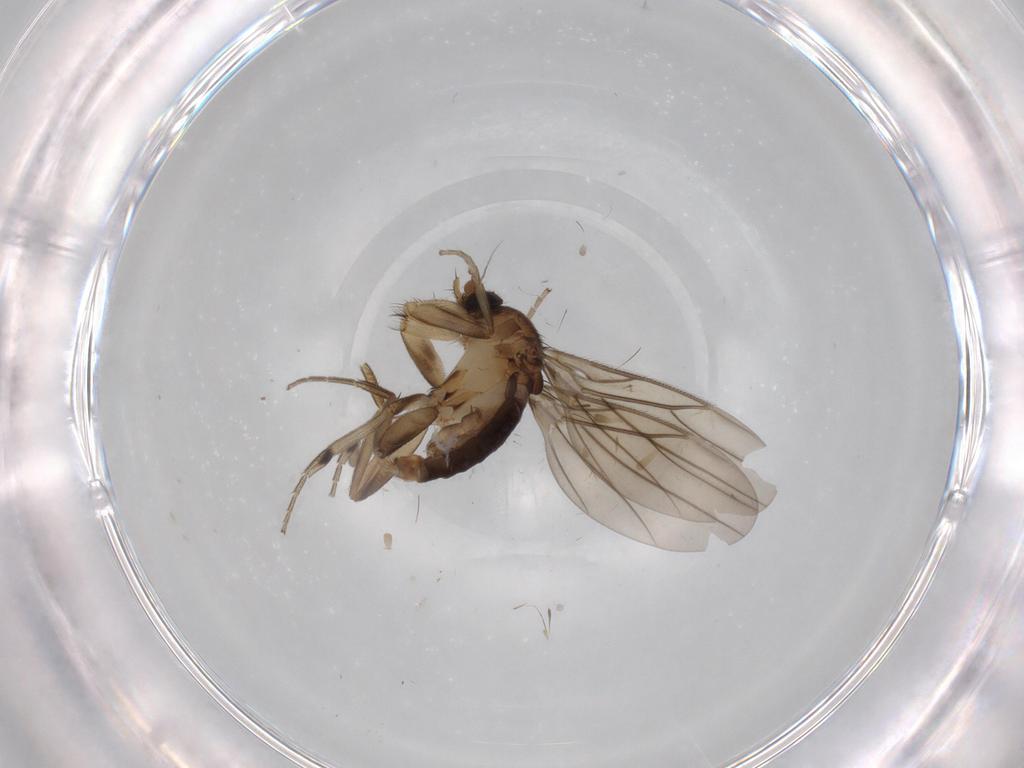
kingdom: Animalia
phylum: Arthropoda
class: Insecta
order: Diptera
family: Phoridae
